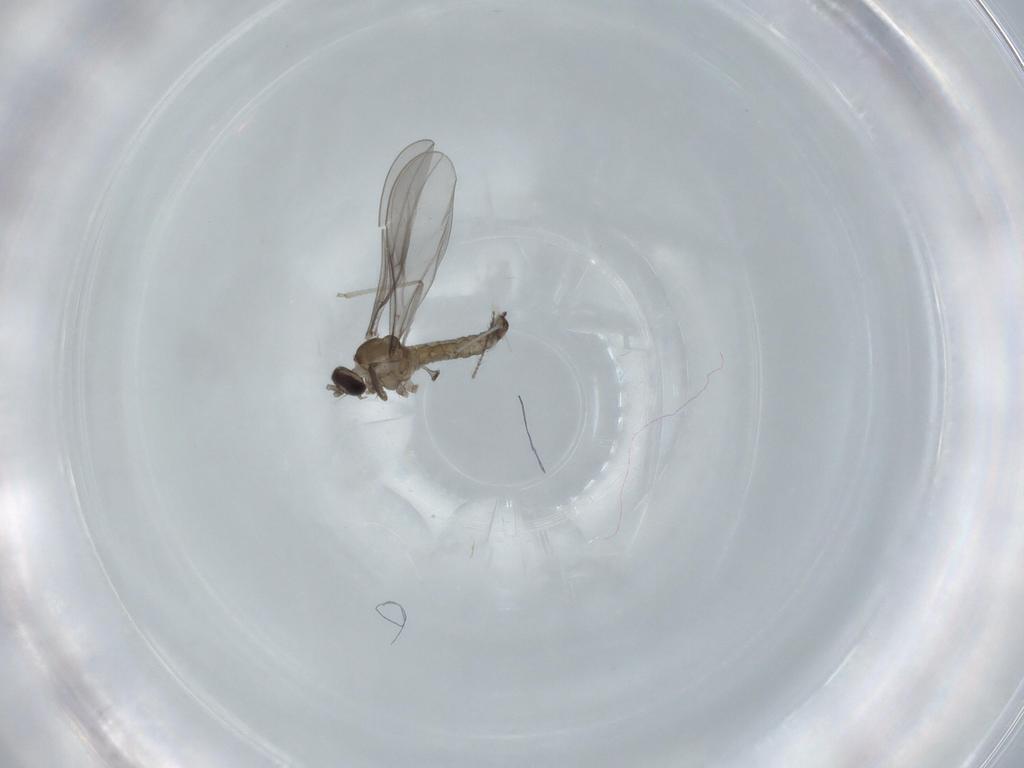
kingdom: Animalia
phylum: Arthropoda
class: Insecta
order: Diptera
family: Cecidomyiidae
